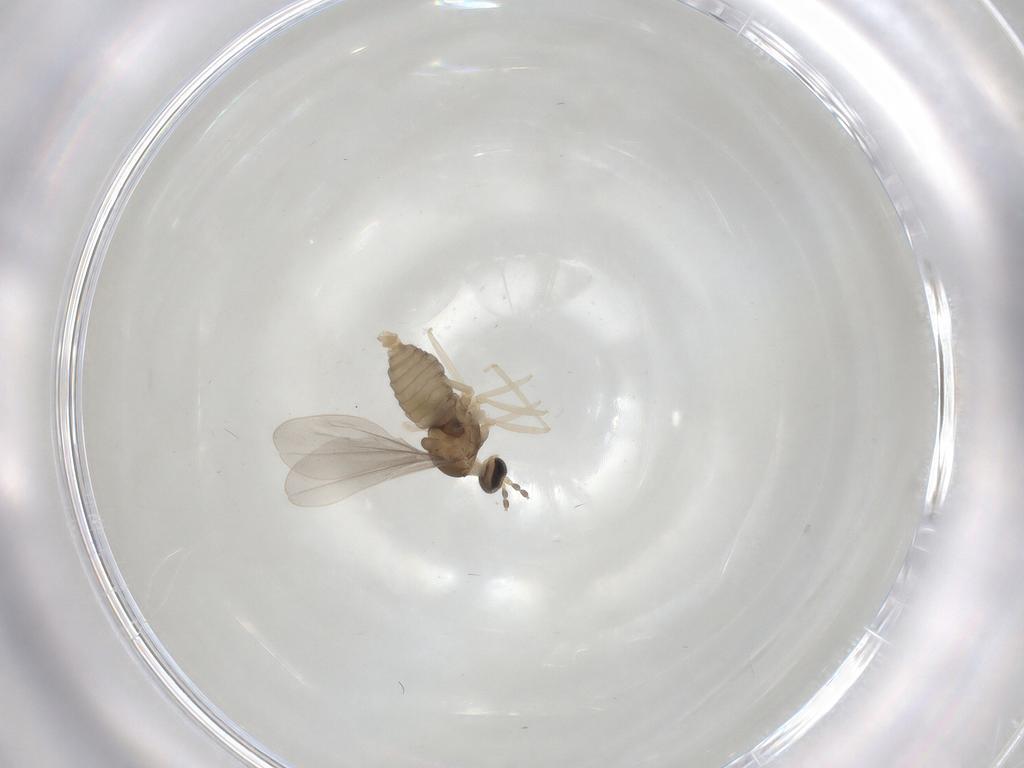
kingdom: Animalia
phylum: Arthropoda
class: Insecta
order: Diptera
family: Cecidomyiidae
